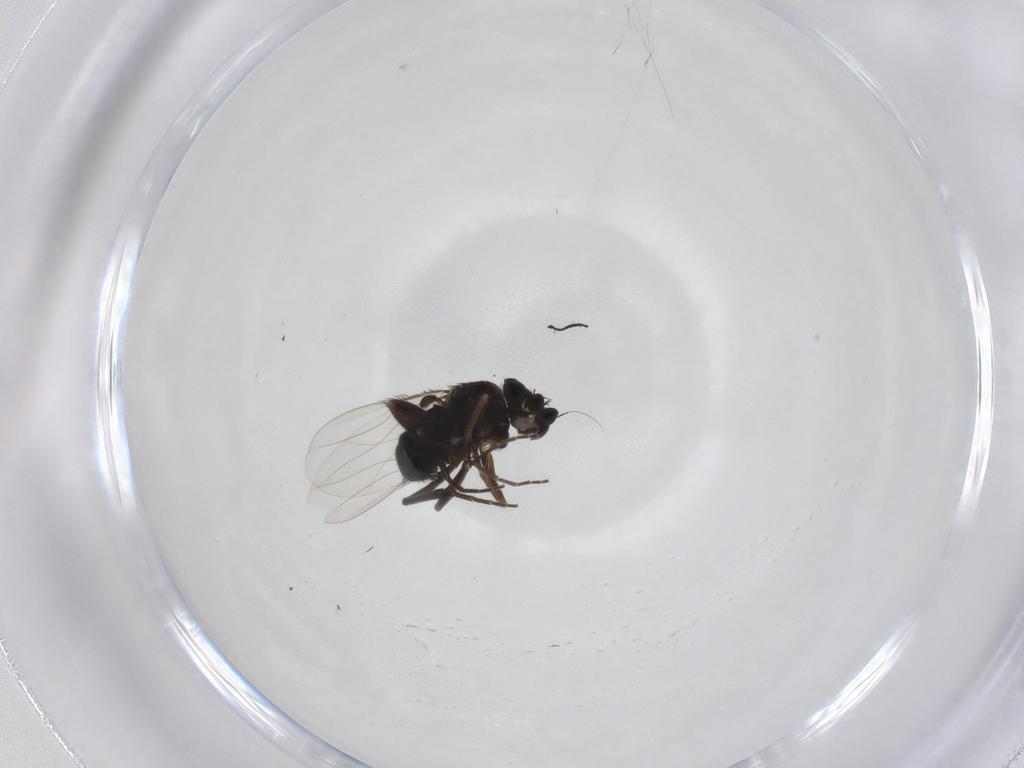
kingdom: Animalia
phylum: Arthropoda
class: Insecta
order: Diptera
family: Phoridae
